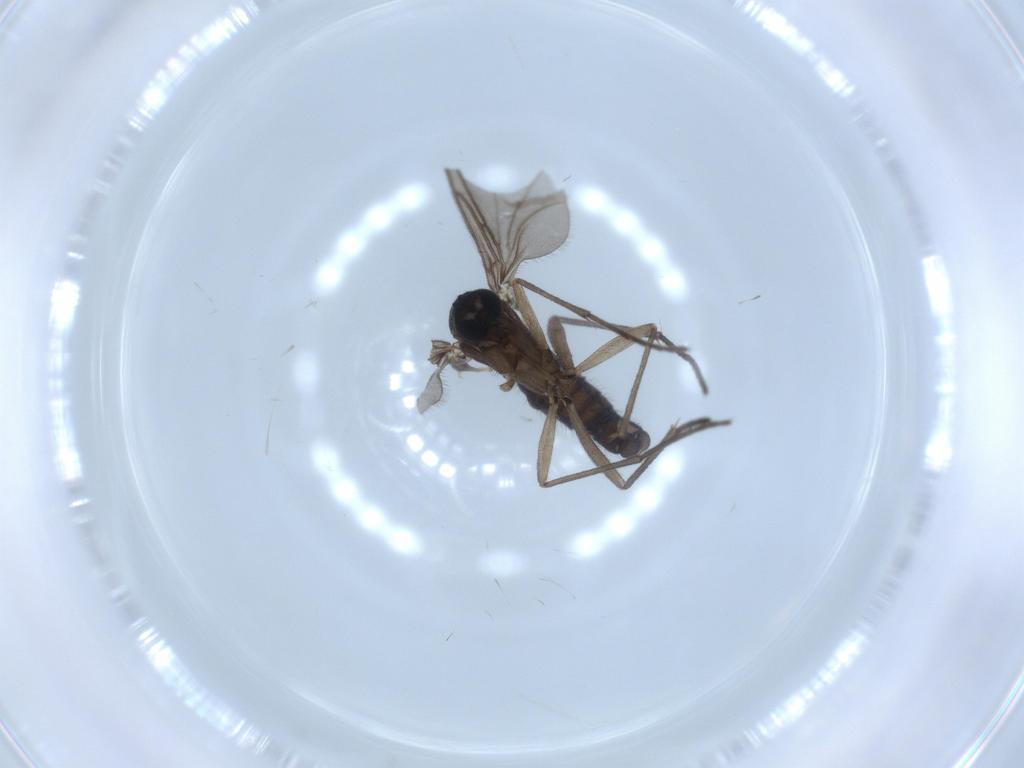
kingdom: Animalia
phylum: Arthropoda
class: Insecta
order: Diptera
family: Sciaridae
